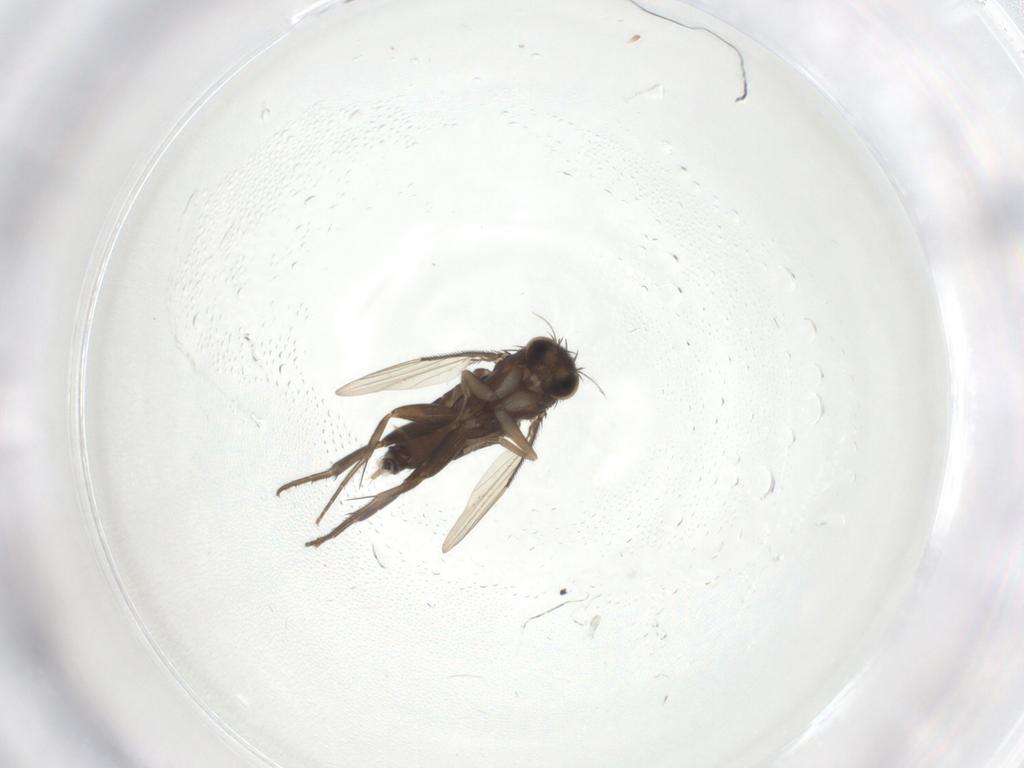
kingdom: Animalia
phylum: Arthropoda
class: Insecta
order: Diptera
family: Phoridae
